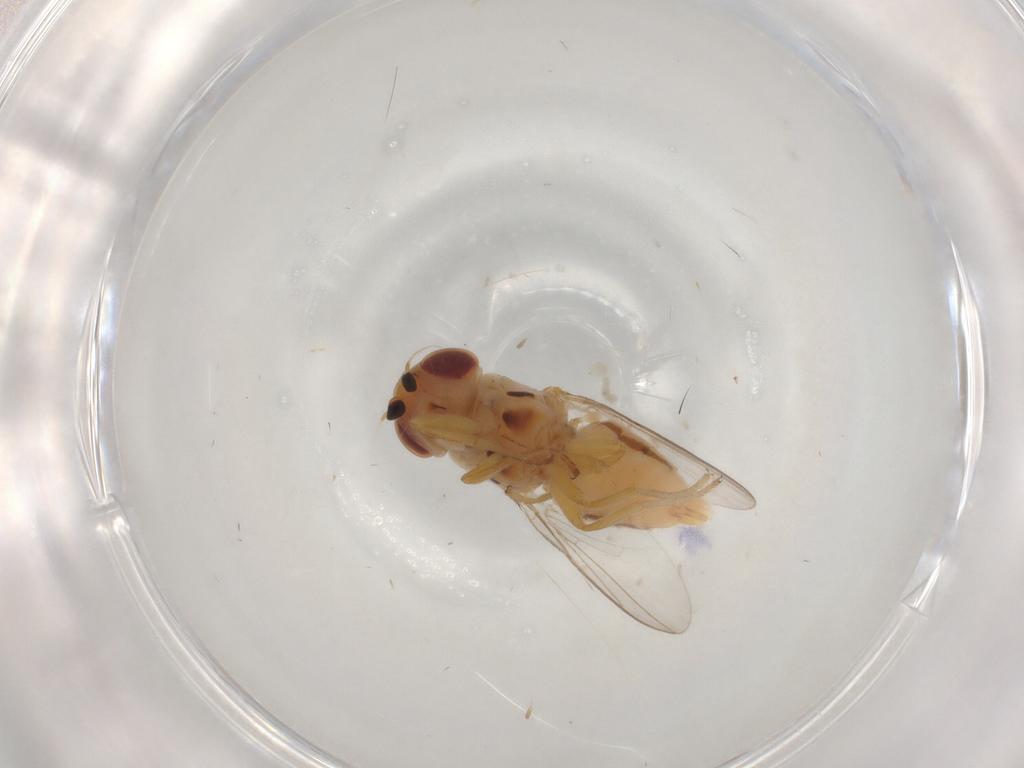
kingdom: Animalia
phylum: Arthropoda
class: Insecta
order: Diptera
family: Chloropidae
